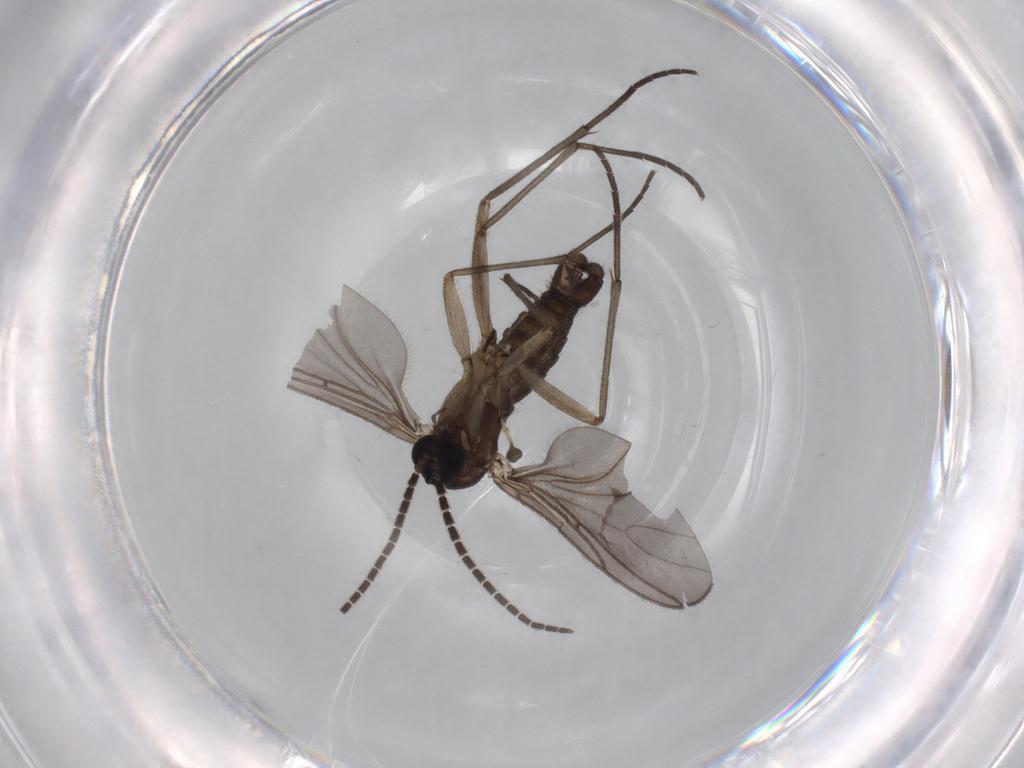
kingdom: Animalia
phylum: Arthropoda
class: Insecta
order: Diptera
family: Sciaridae
